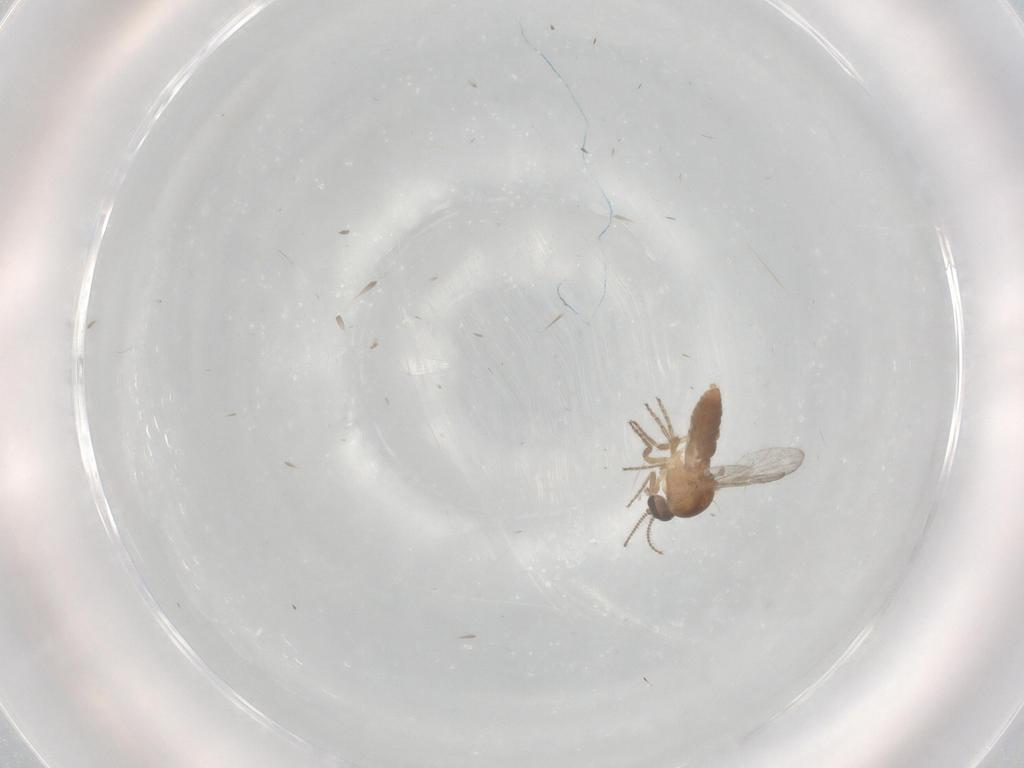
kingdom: Animalia
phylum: Arthropoda
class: Insecta
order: Diptera
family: Ceratopogonidae
